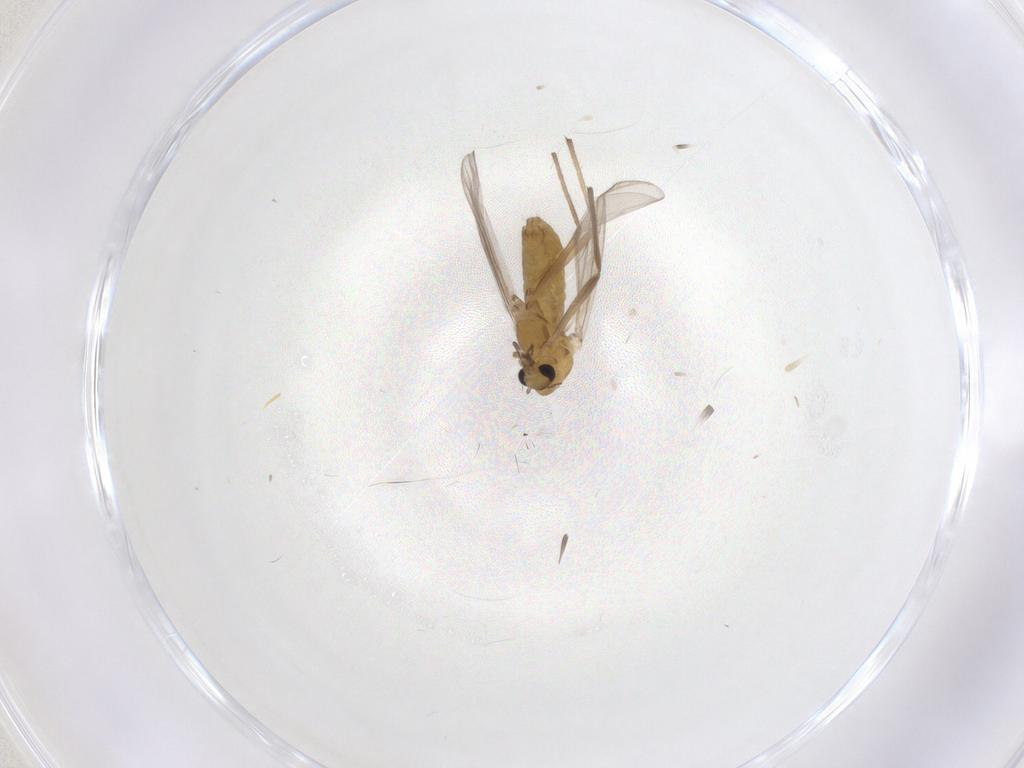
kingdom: Animalia
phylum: Arthropoda
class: Insecta
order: Diptera
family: Chironomidae
